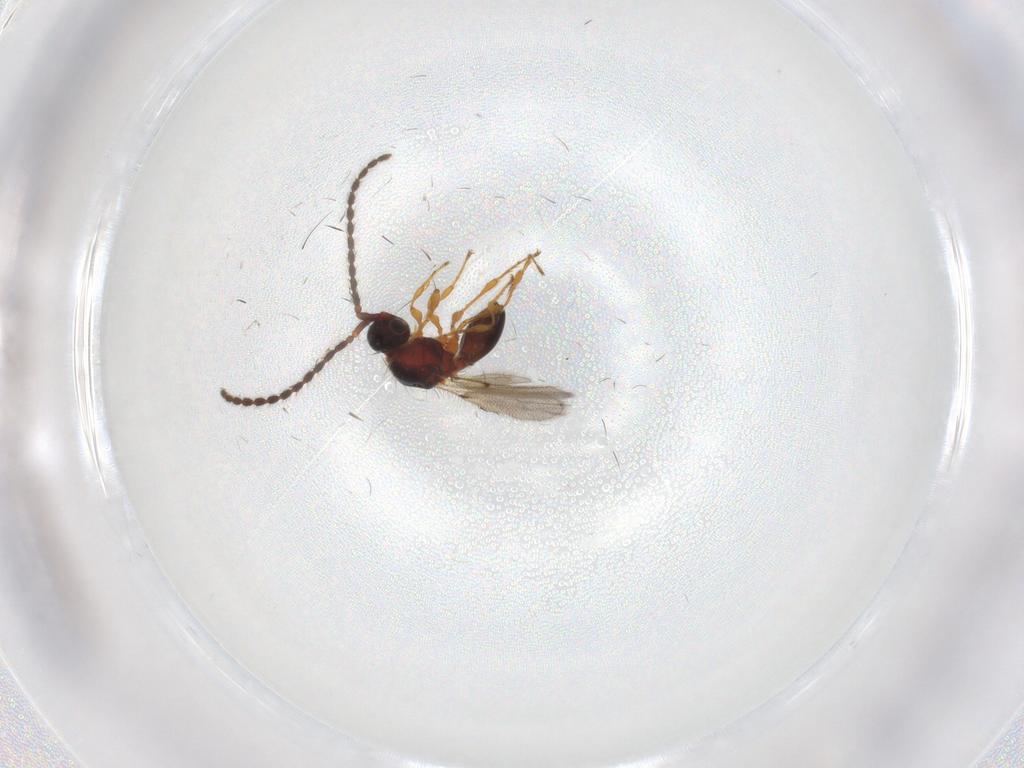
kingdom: Animalia
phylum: Arthropoda
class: Insecta
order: Hymenoptera
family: Diapriidae
